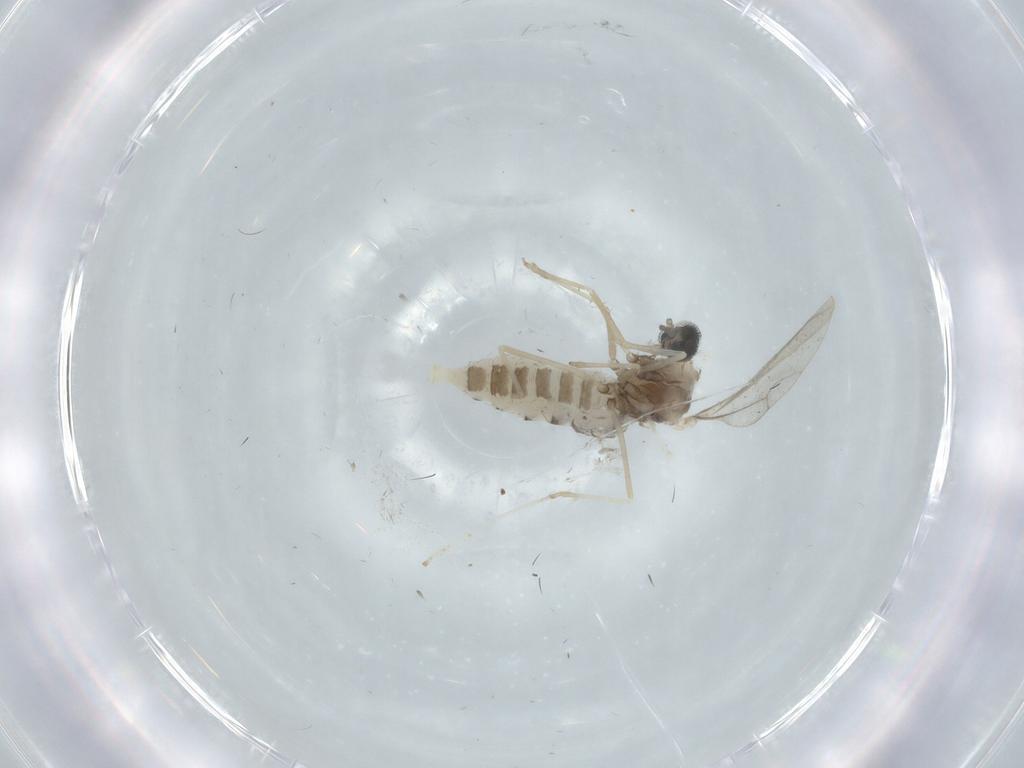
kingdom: Animalia
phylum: Arthropoda
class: Insecta
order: Diptera
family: Cecidomyiidae
